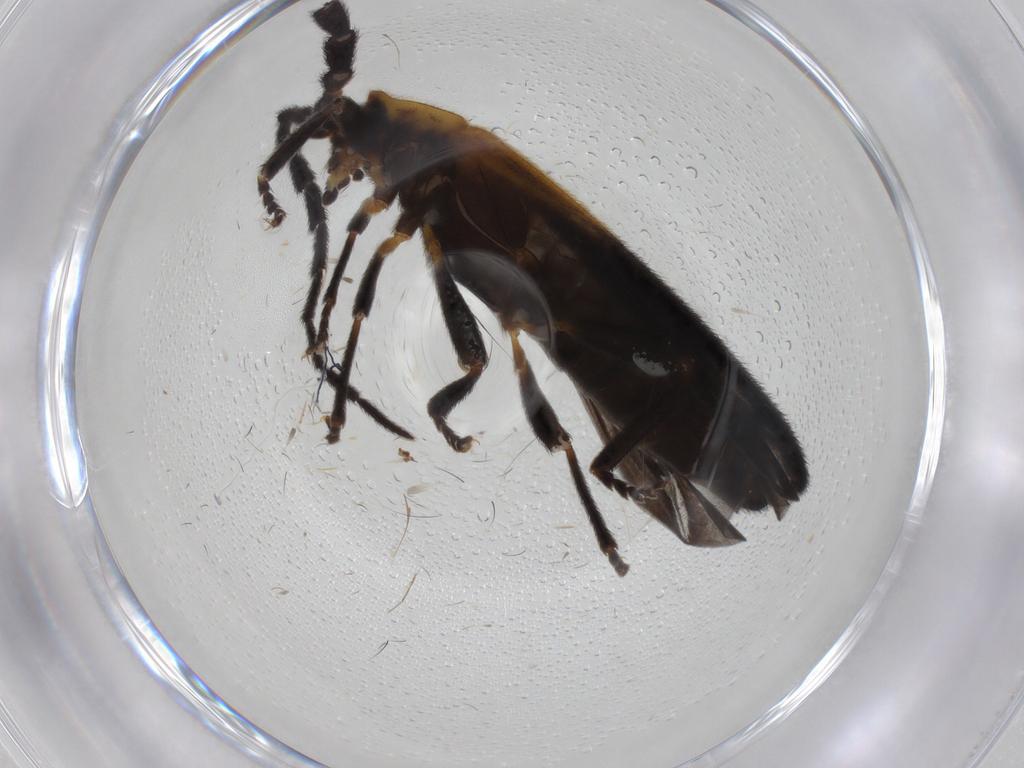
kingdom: Animalia
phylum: Arthropoda
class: Insecta
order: Coleoptera
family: Lycidae
